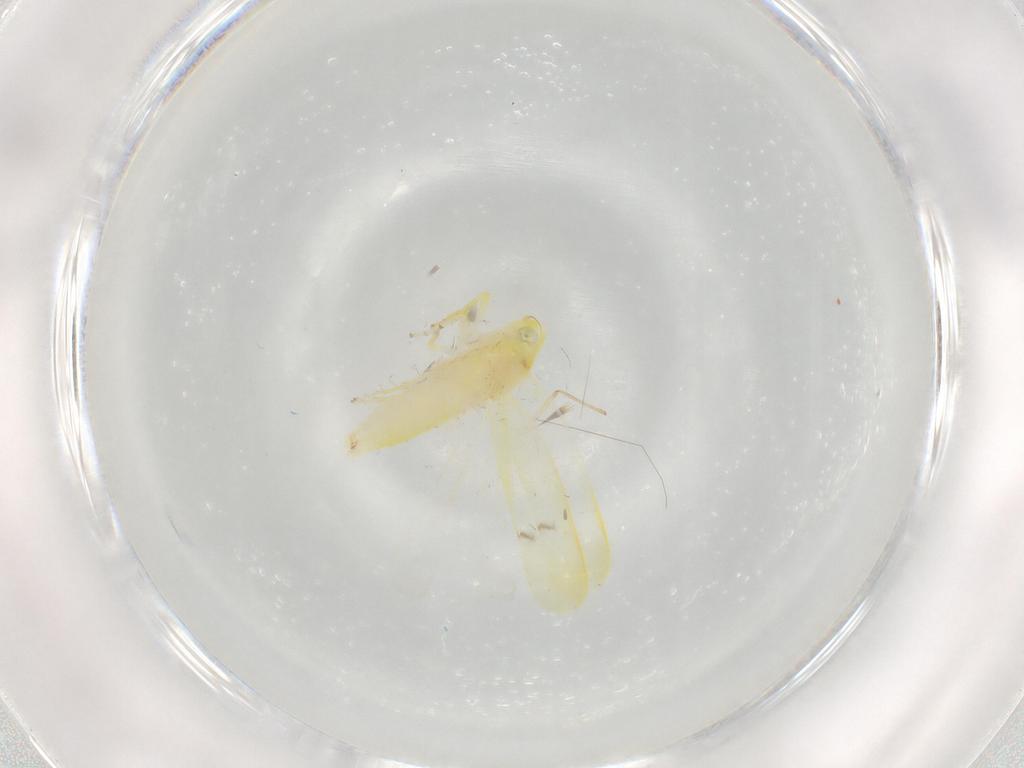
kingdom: Animalia
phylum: Arthropoda
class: Insecta
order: Hemiptera
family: Cicadellidae
